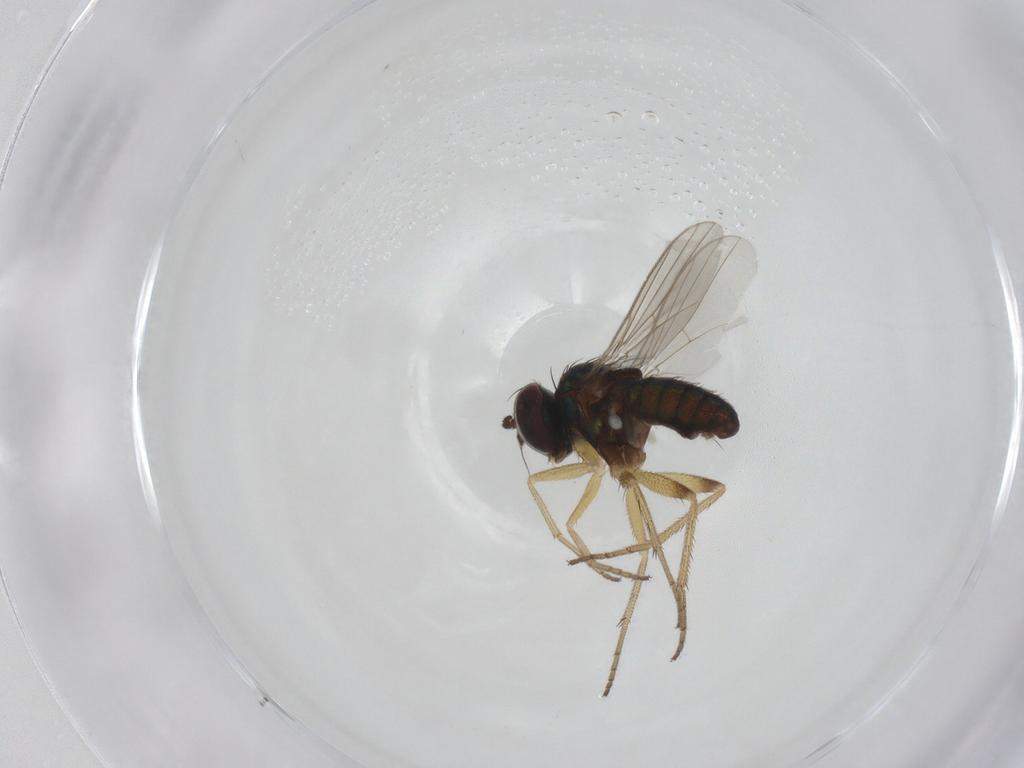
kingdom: Animalia
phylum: Arthropoda
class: Insecta
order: Diptera
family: Dolichopodidae
